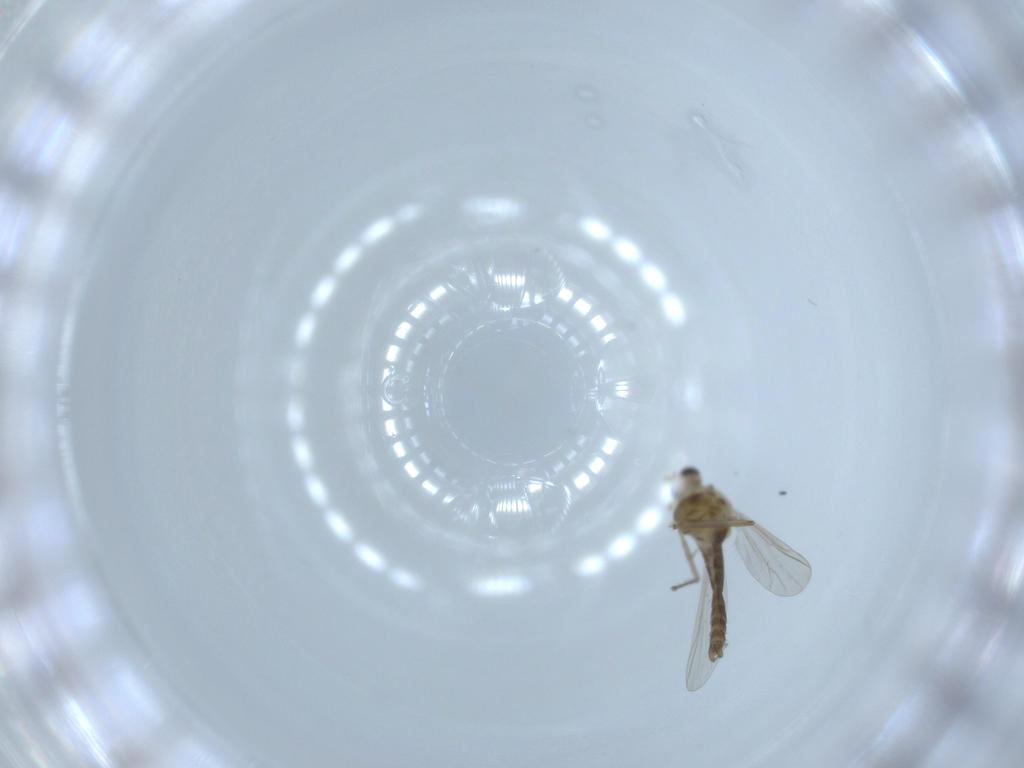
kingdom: Animalia
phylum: Arthropoda
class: Insecta
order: Diptera
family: Chironomidae
